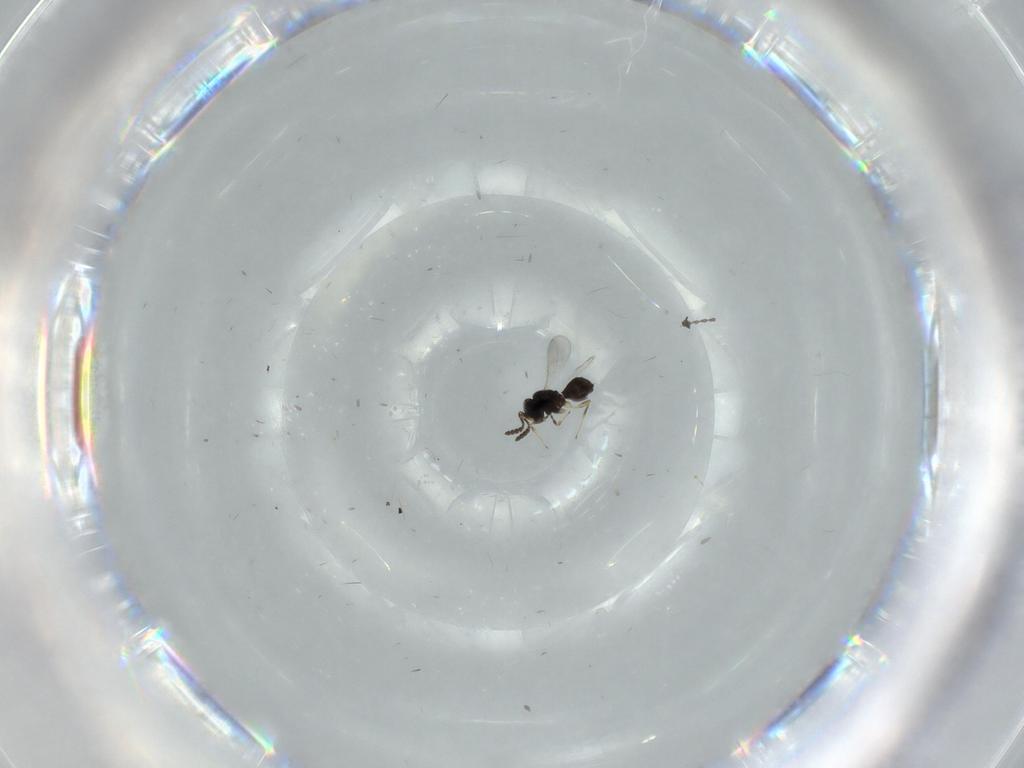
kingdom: Animalia
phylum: Arthropoda
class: Insecta
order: Hymenoptera
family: Scelionidae
